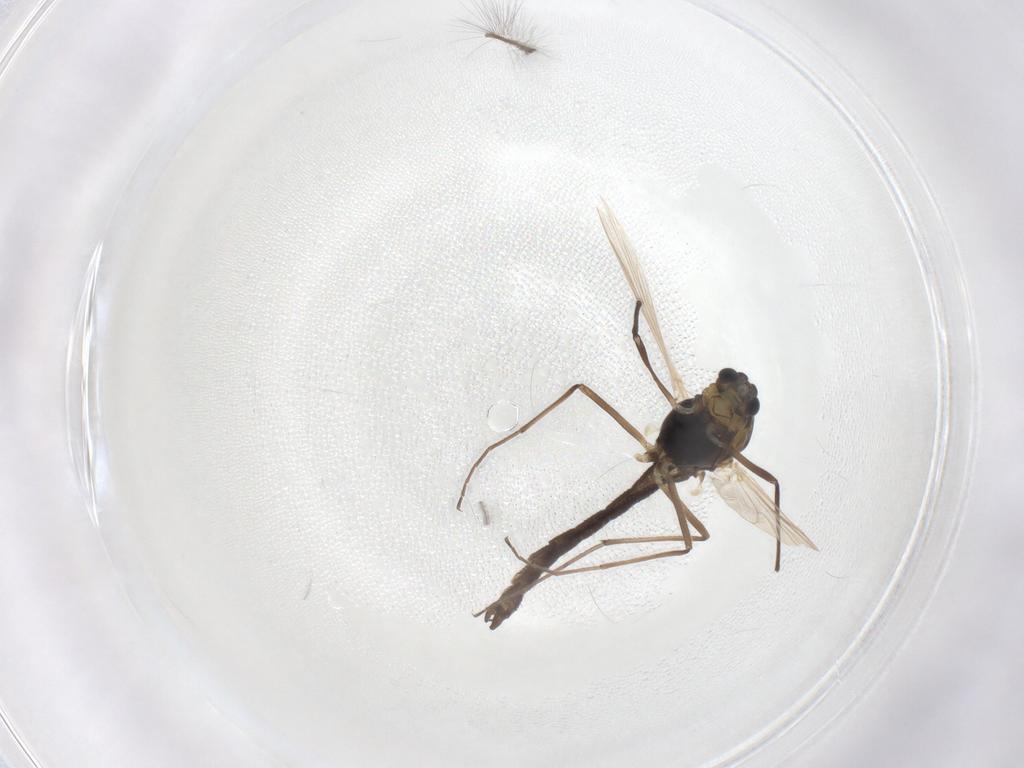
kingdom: Animalia
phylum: Arthropoda
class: Insecta
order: Diptera
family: Chironomidae
